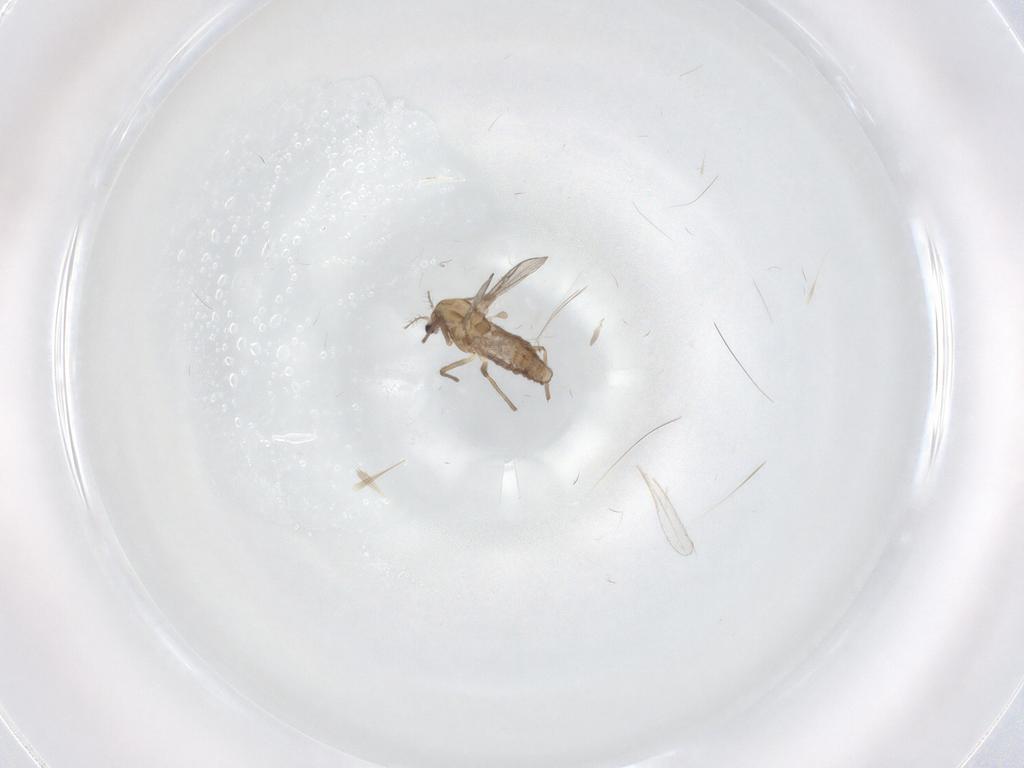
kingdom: Animalia
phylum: Arthropoda
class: Insecta
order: Diptera
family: Chironomidae
